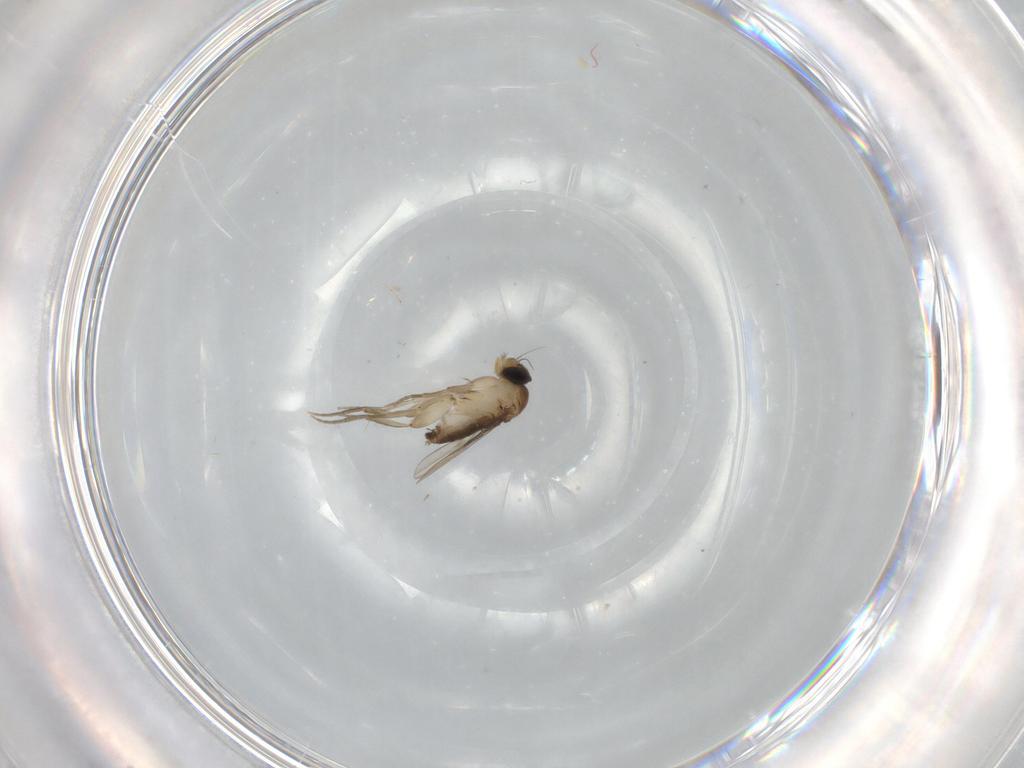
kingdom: Animalia
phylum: Arthropoda
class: Insecta
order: Diptera
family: Phoridae
